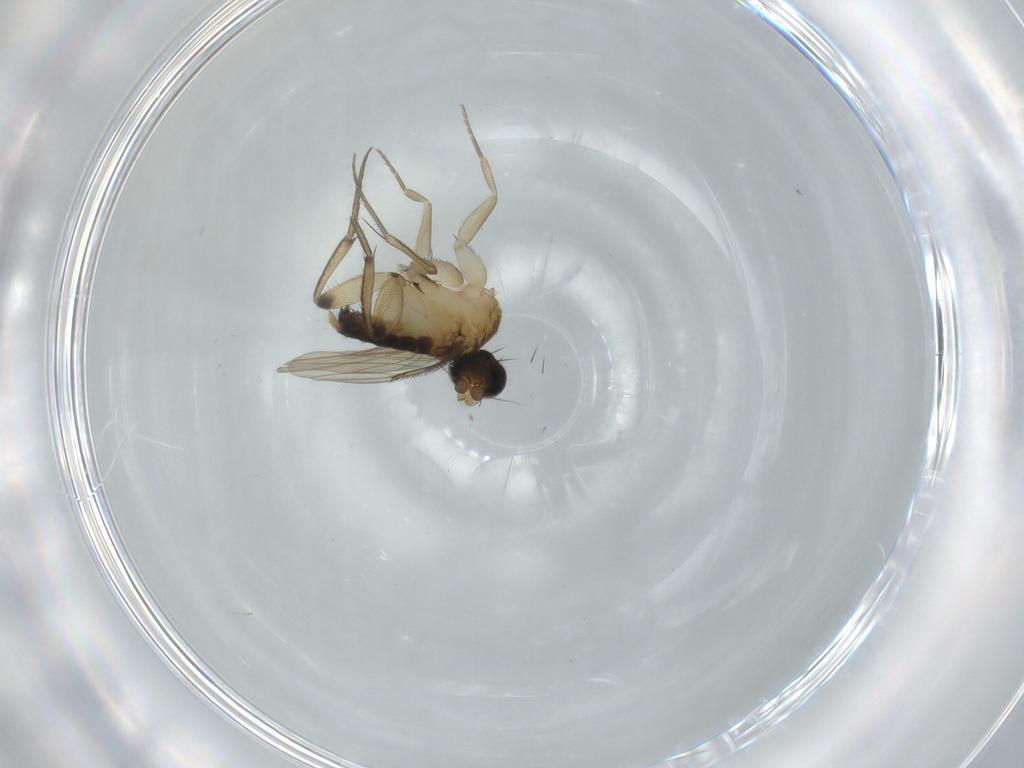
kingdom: Animalia
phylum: Arthropoda
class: Insecta
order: Diptera
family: Phoridae
